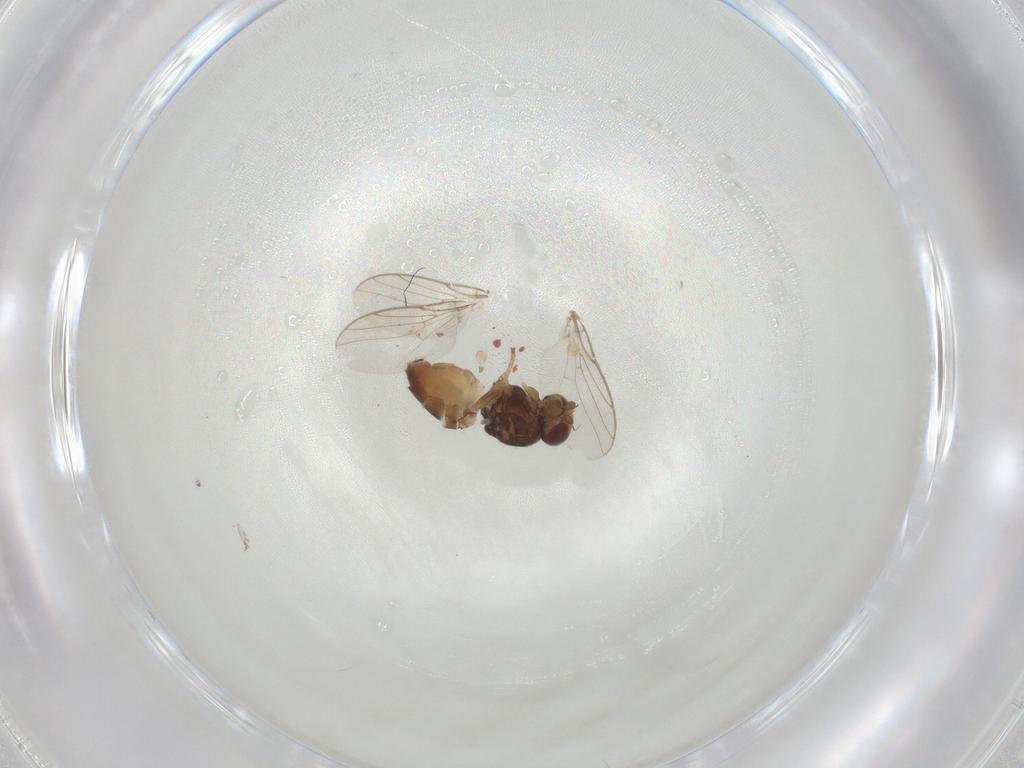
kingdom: Animalia
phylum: Arthropoda
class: Insecta
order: Diptera
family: Chloropidae
